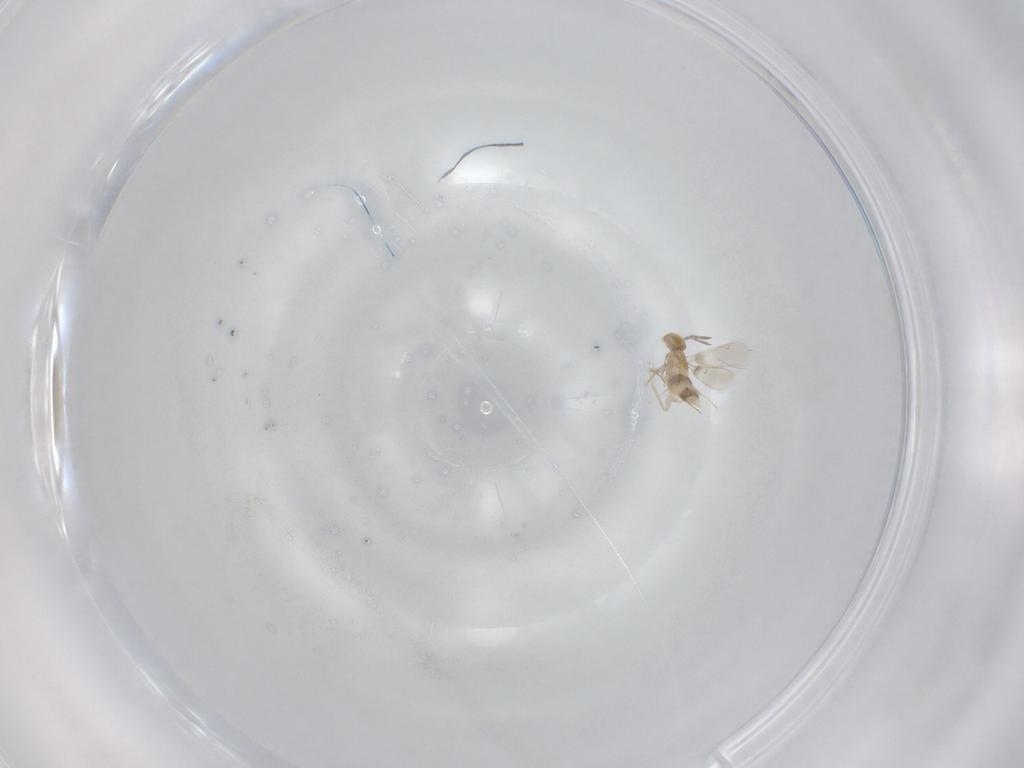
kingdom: Animalia
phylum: Arthropoda
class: Insecta
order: Hymenoptera
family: Aphelinidae
